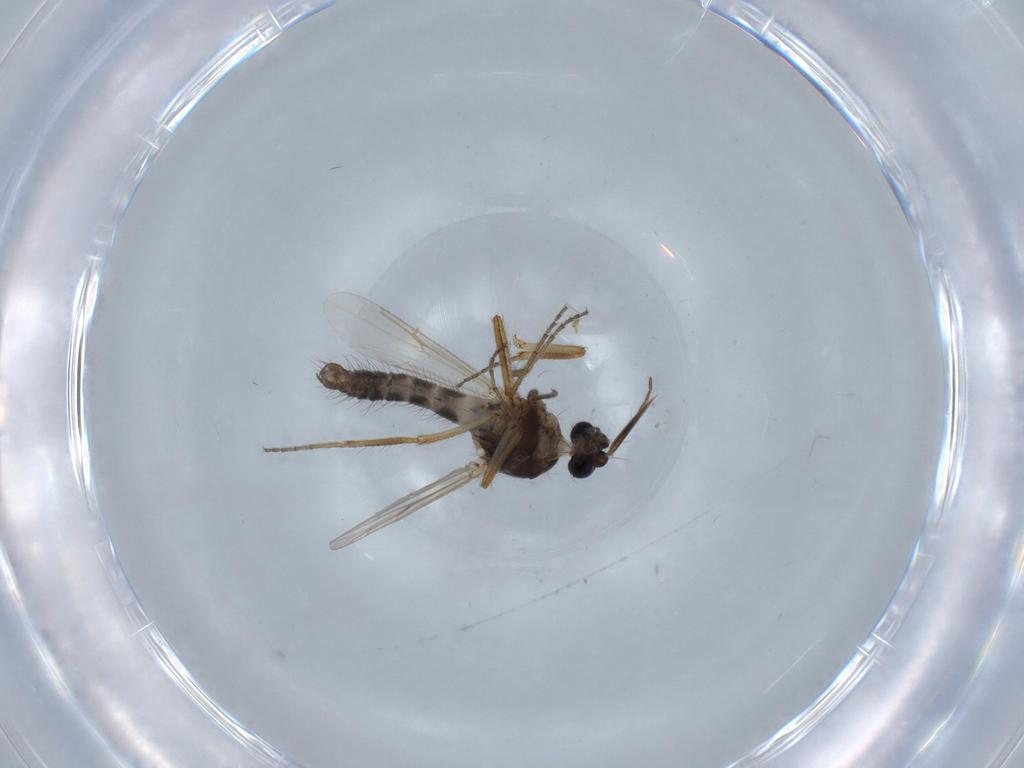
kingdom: Animalia
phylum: Arthropoda
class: Insecta
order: Diptera
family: Ceratopogonidae
